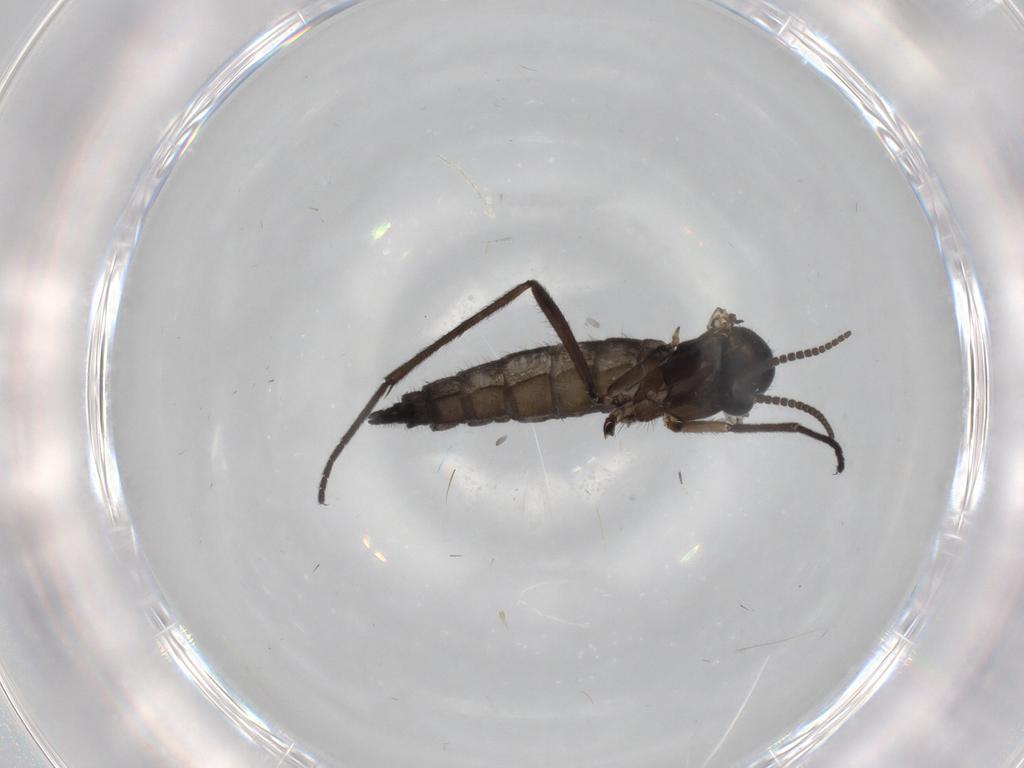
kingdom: Animalia
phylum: Arthropoda
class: Insecta
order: Diptera
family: Sciaridae
